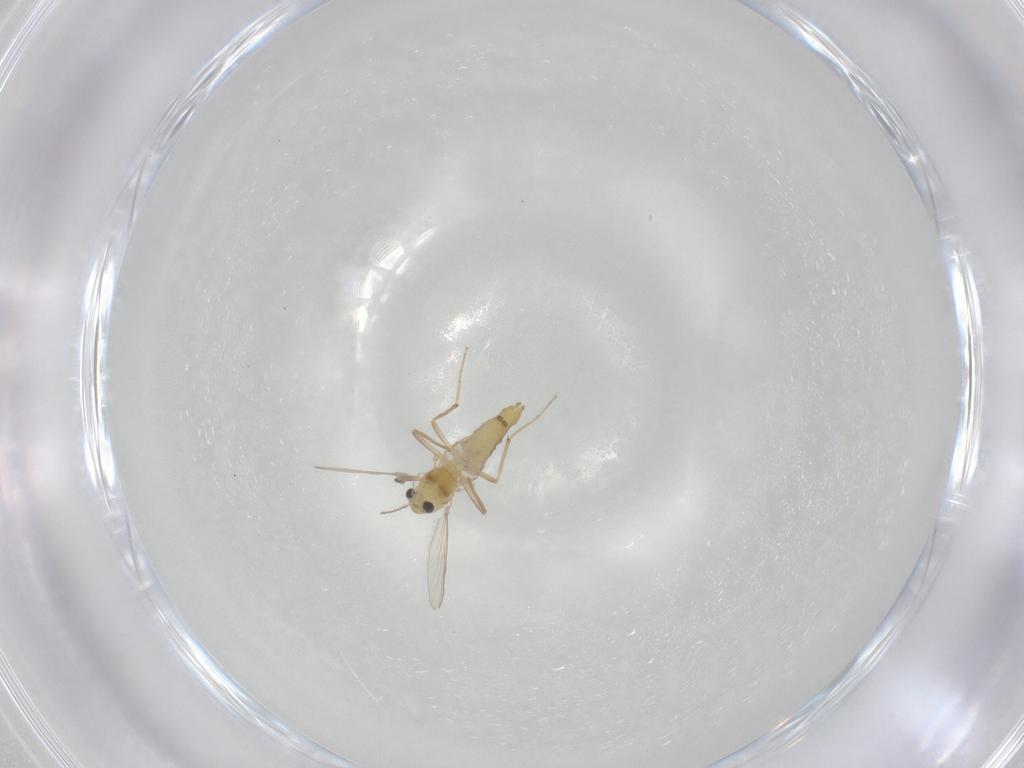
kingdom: Animalia
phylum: Arthropoda
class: Insecta
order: Diptera
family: Chironomidae
